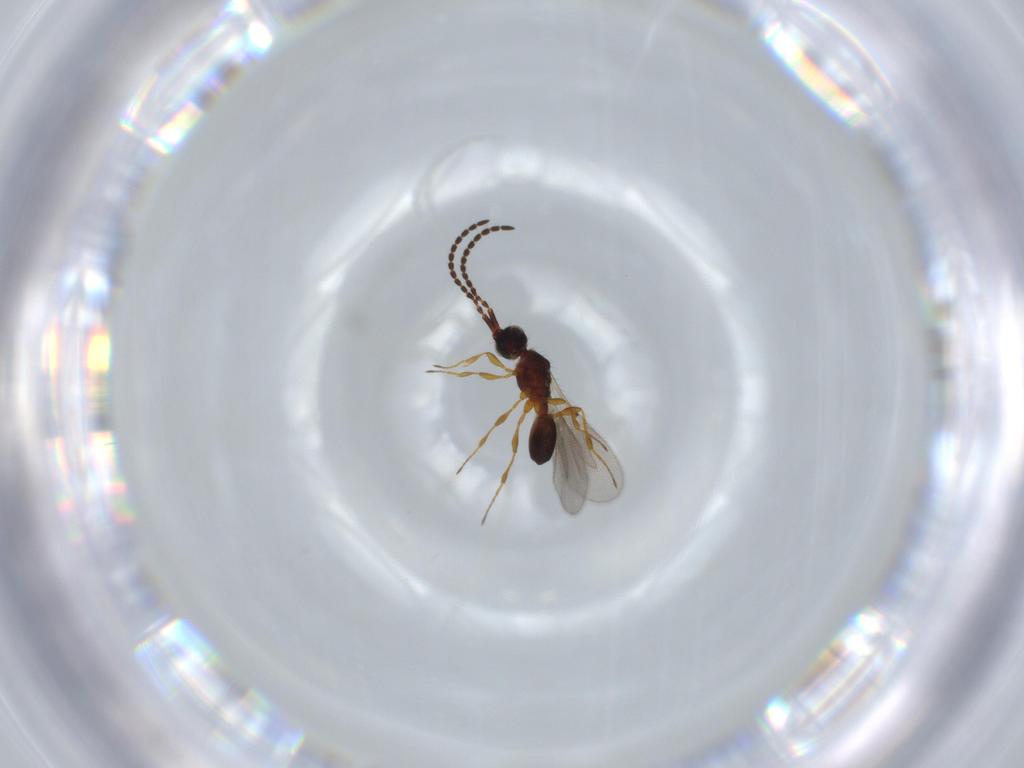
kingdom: Animalia
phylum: Arthropoda
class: Insecta
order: Hymenoptera
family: Diapriidae
